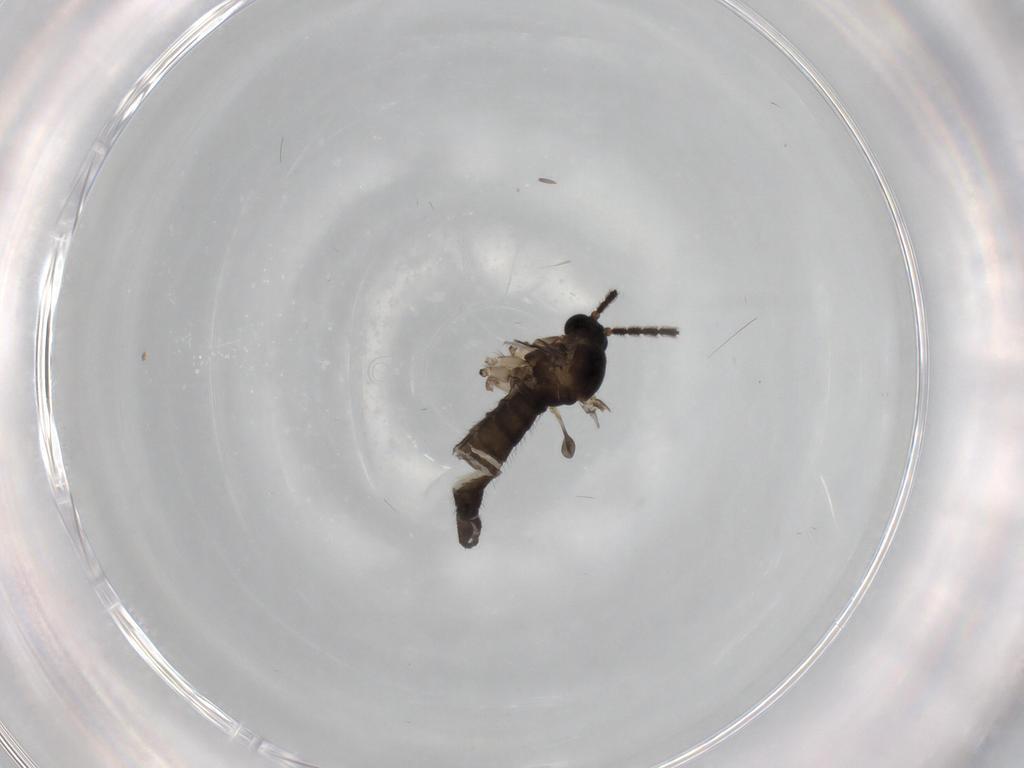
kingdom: Animalia
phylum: Arthropoda
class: Insecta
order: Diptera
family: Sciaridae
